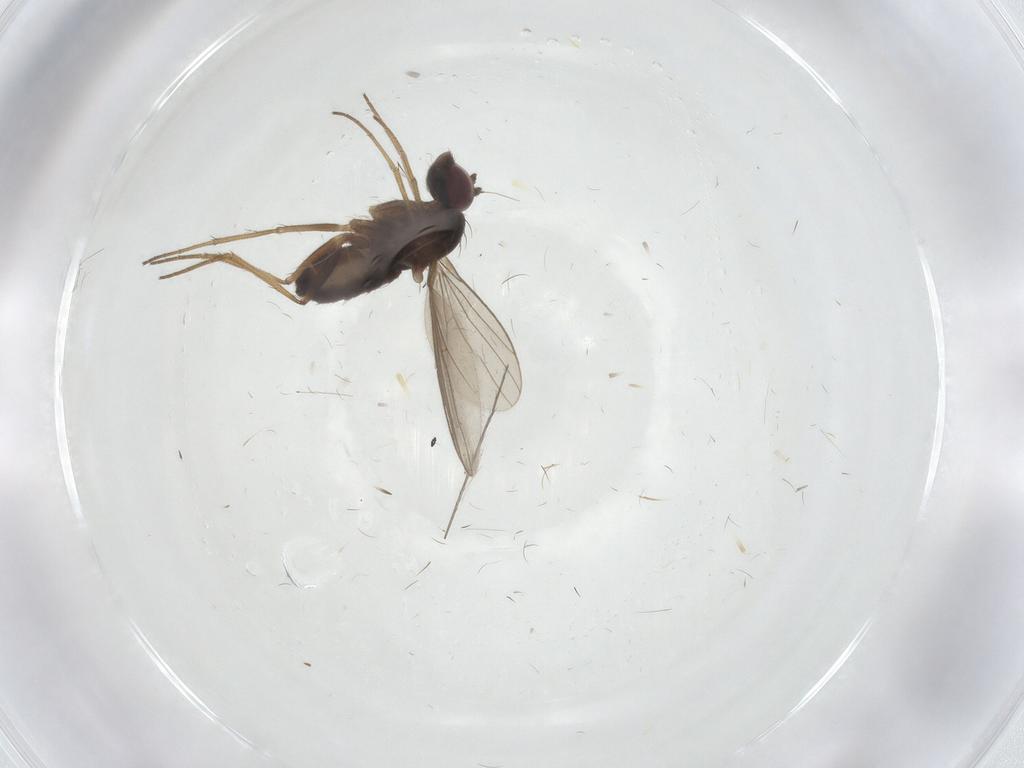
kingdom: Animalia
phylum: Arthropoda
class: Insecta
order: Diptera
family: Dolichopodidae
